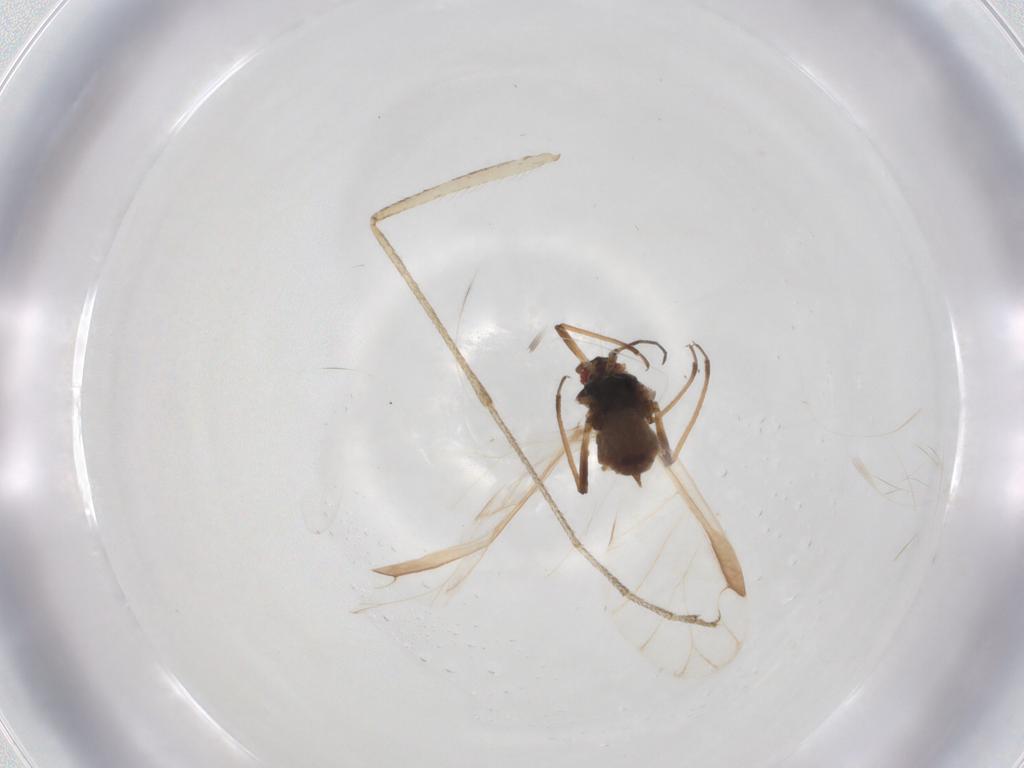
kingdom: Animalia
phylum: Arthropoda
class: Insecta
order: Hemiptera
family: Aphididae
